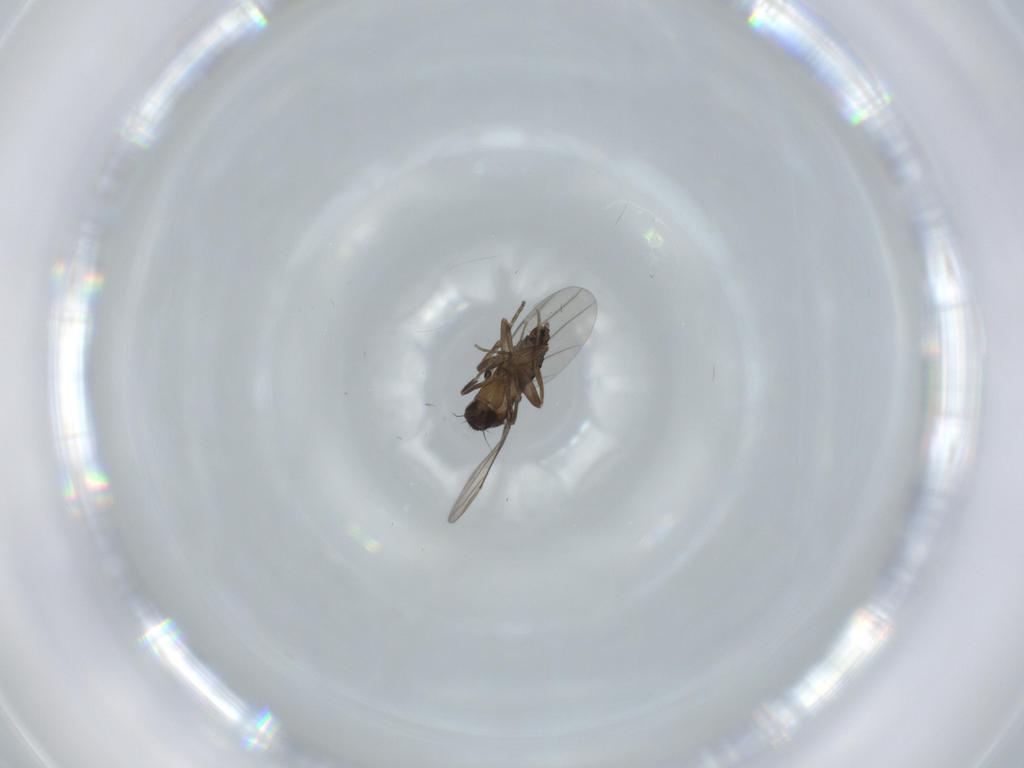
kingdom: Animalia
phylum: Arthropoda
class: Insecta
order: Diptera
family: Phoridae
